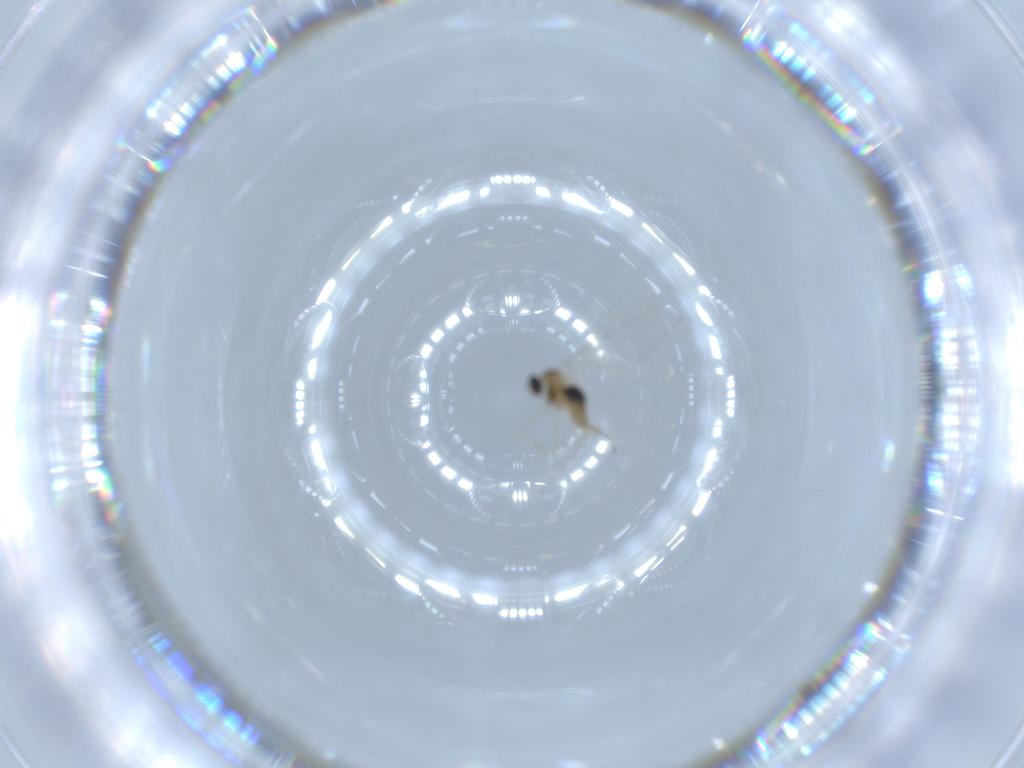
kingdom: Animalia
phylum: Arthropoda
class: Insecta
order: Diptera
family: Cecidomyiidae
